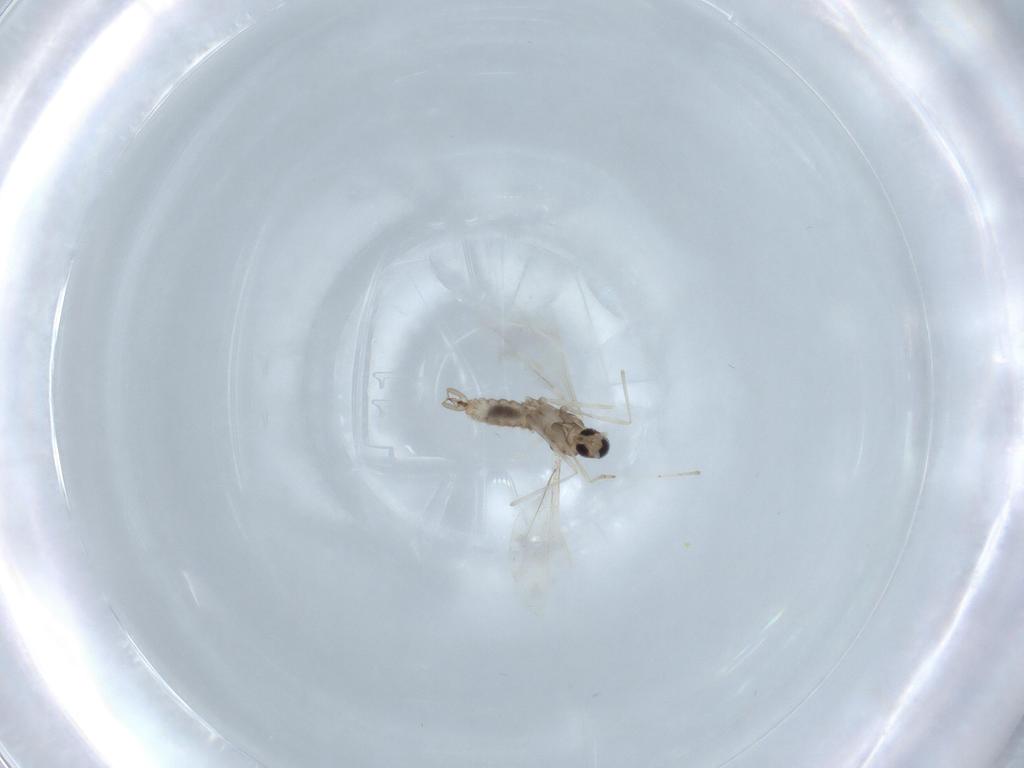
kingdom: Animalia
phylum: Arthropoda
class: Insecta
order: Diptera
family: Cecidomyiidae
